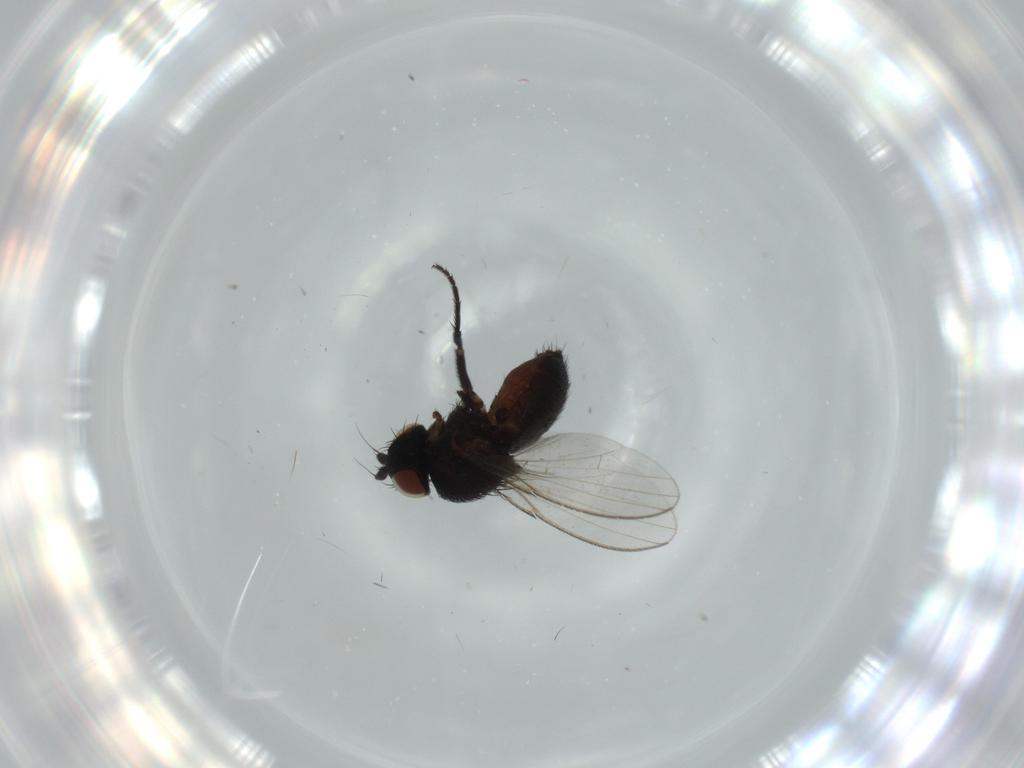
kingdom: Animalia
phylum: Arthropoda
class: Insecta
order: Diptera
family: Milichiidae
